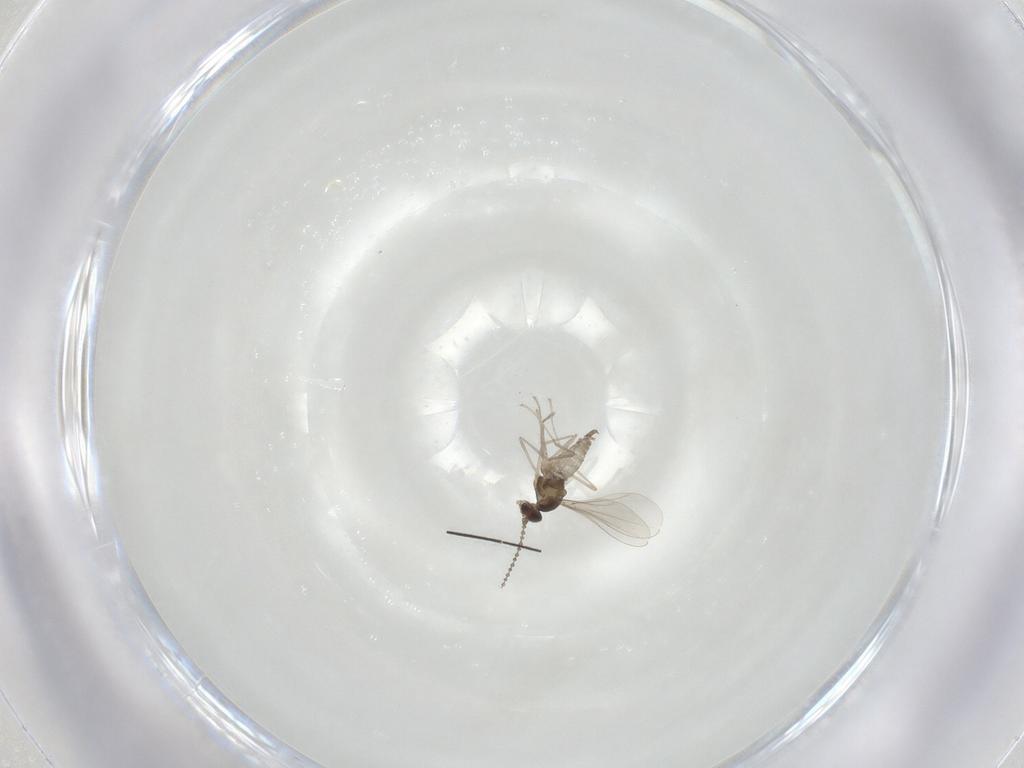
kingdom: Animalia
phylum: Arthropoda
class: Insecta
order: Diptera
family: Cecidomyiidae
